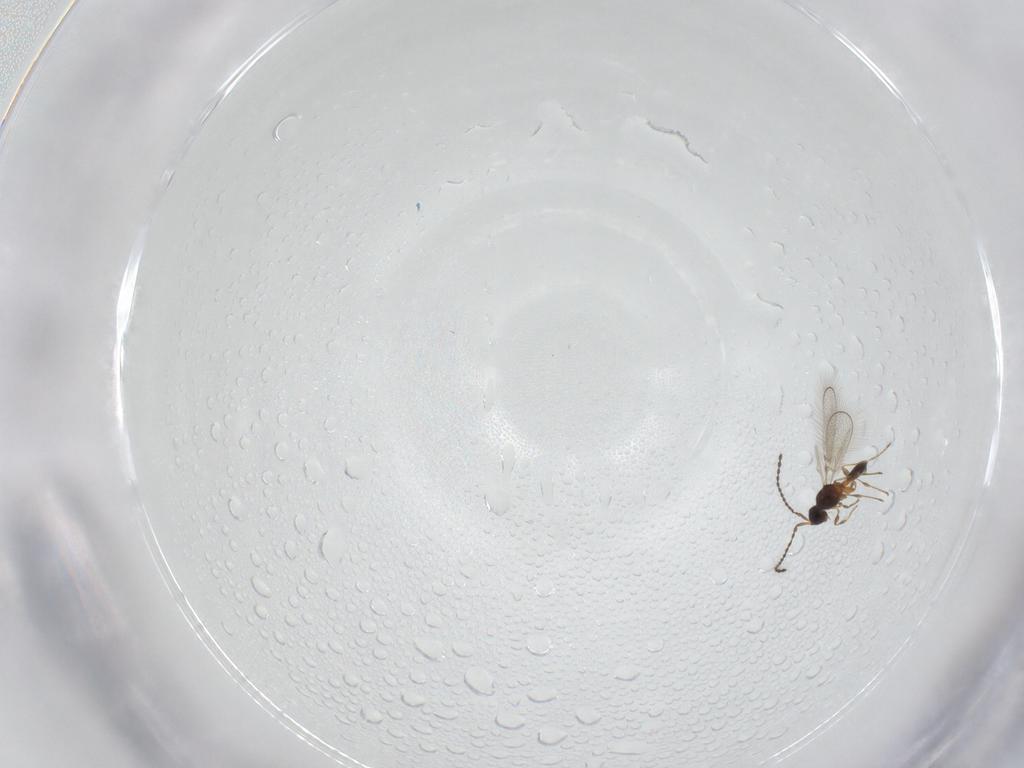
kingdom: Animalia
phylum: Arthropoda
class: Insecta
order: Hymenoptera
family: Diapriidae
